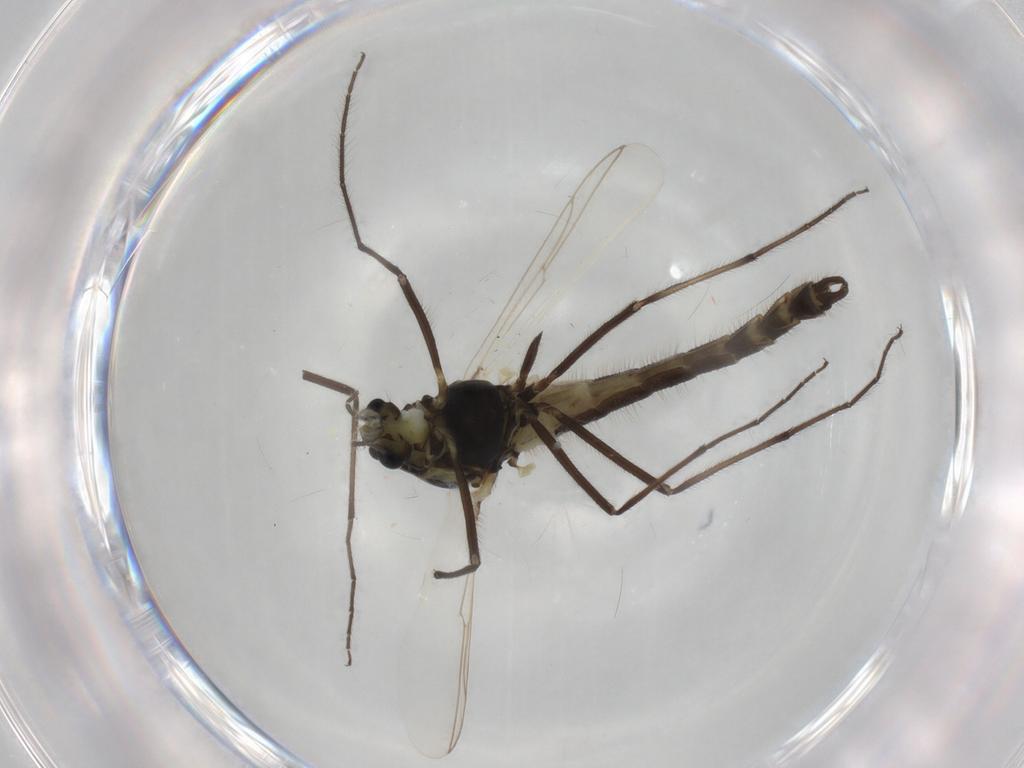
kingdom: Animalia
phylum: Arthropoda
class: Insecta
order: Diptera
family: Syrphidae
